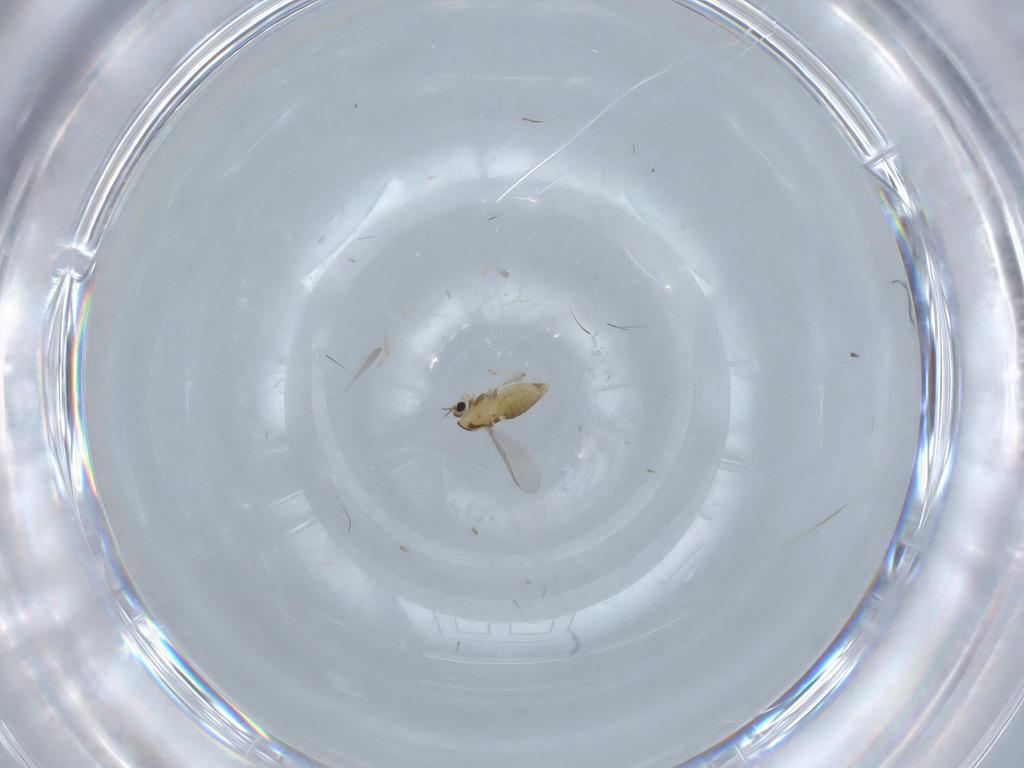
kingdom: Animalia
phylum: Arthropoda
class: Insecta
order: Diptera
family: Chironomidae
